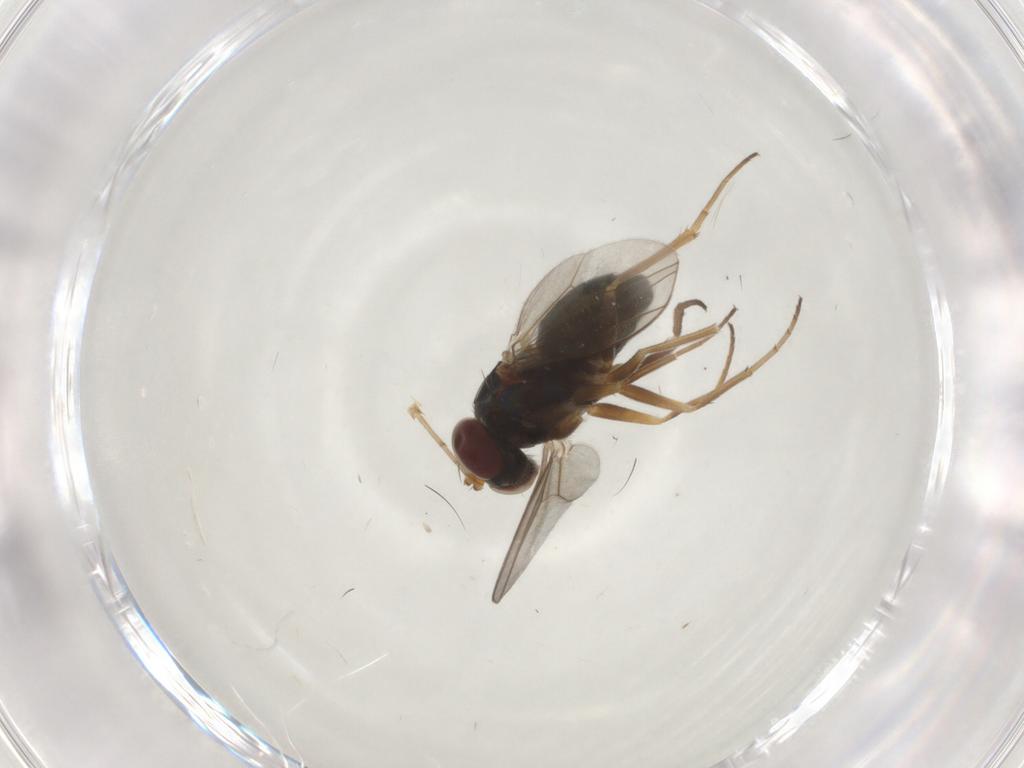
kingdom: Animalia
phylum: Arthropoda
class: Insecta
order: Diptera
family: Dolichopodidae
